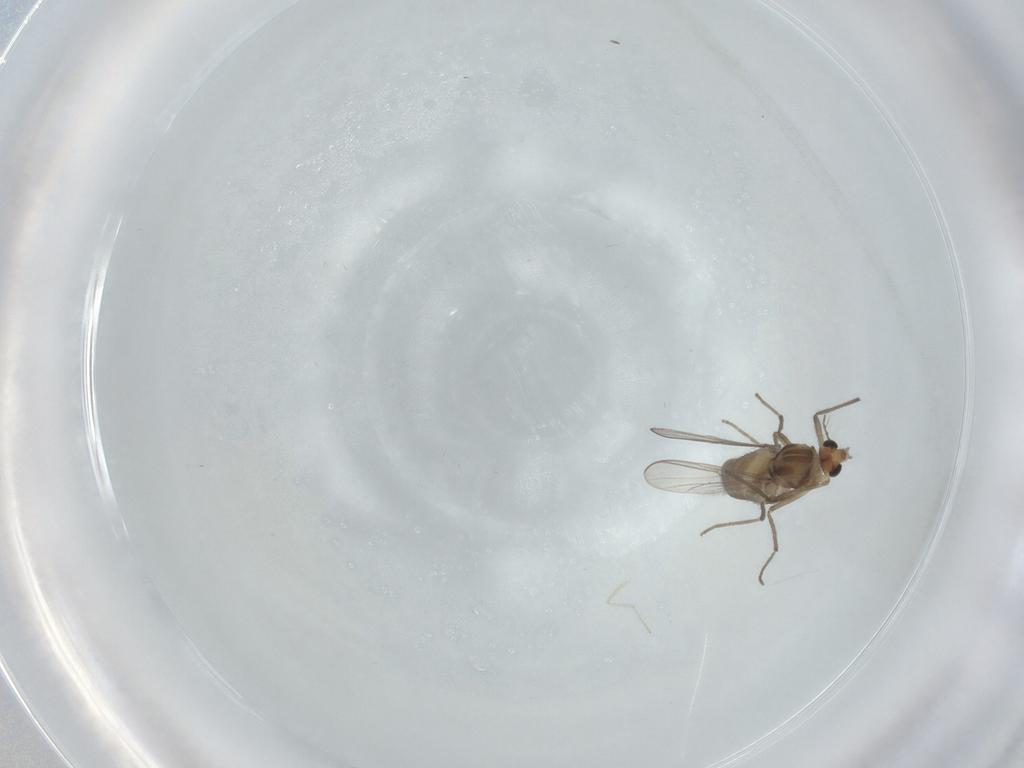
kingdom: Animalia
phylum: Arthropoda
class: Insecta
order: Diptera
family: Chironomidae
